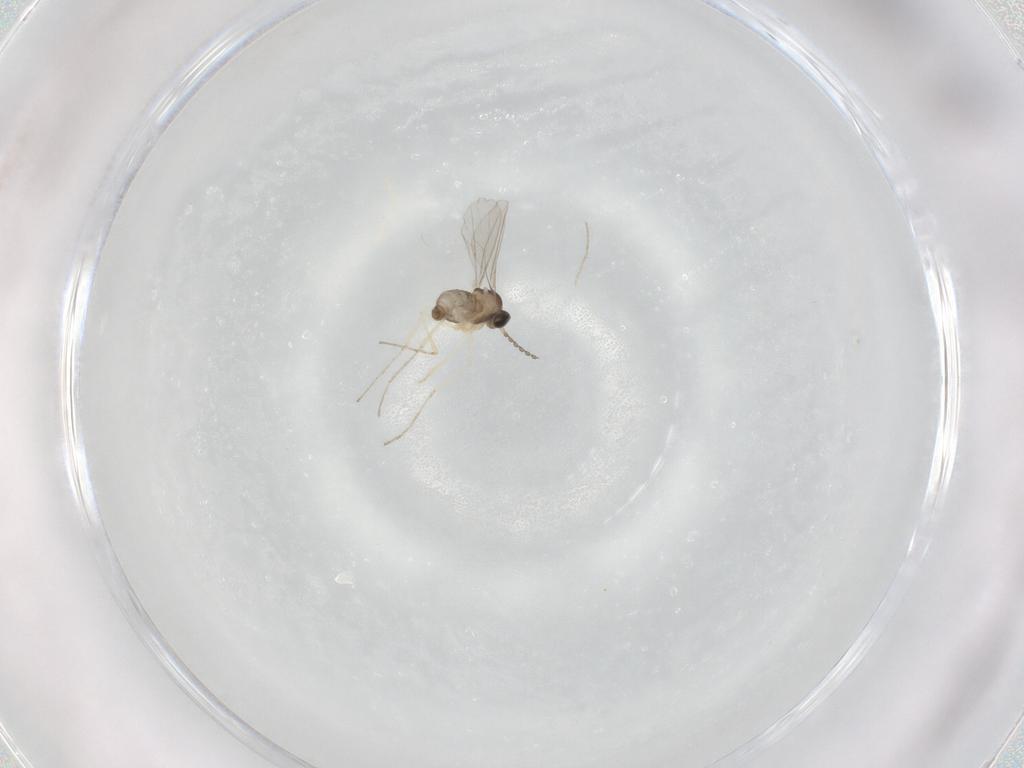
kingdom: Animalia
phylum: Arthropoda
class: Insecta
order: Diptera
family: Cecidomyiidae
